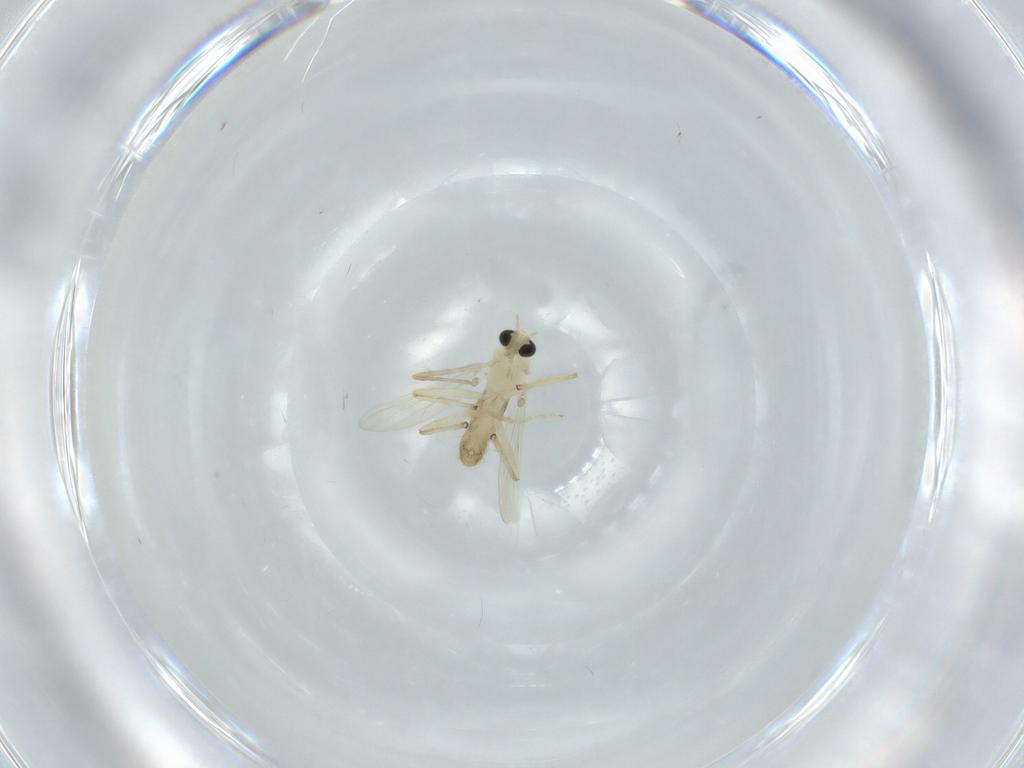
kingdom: Animalia
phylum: Arthropoda
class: Insecta
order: Diptera
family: Chironomidae
